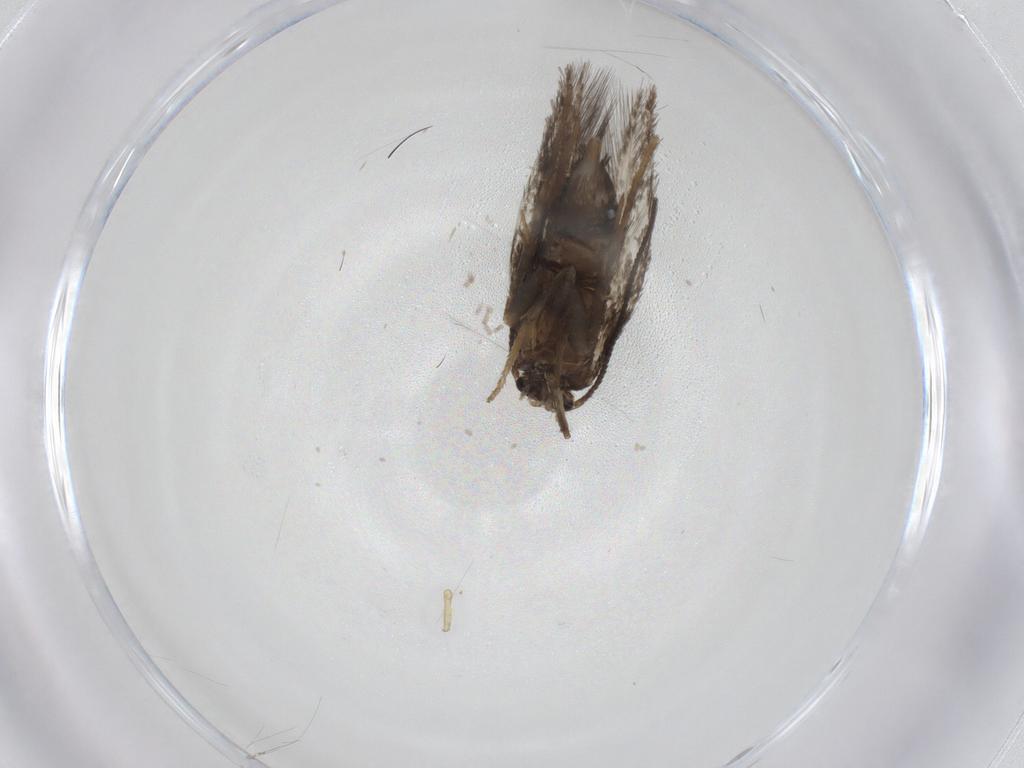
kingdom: Animalia
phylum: Arthropoda
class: Insecta
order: Lepidoptera
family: Nepticulidae
